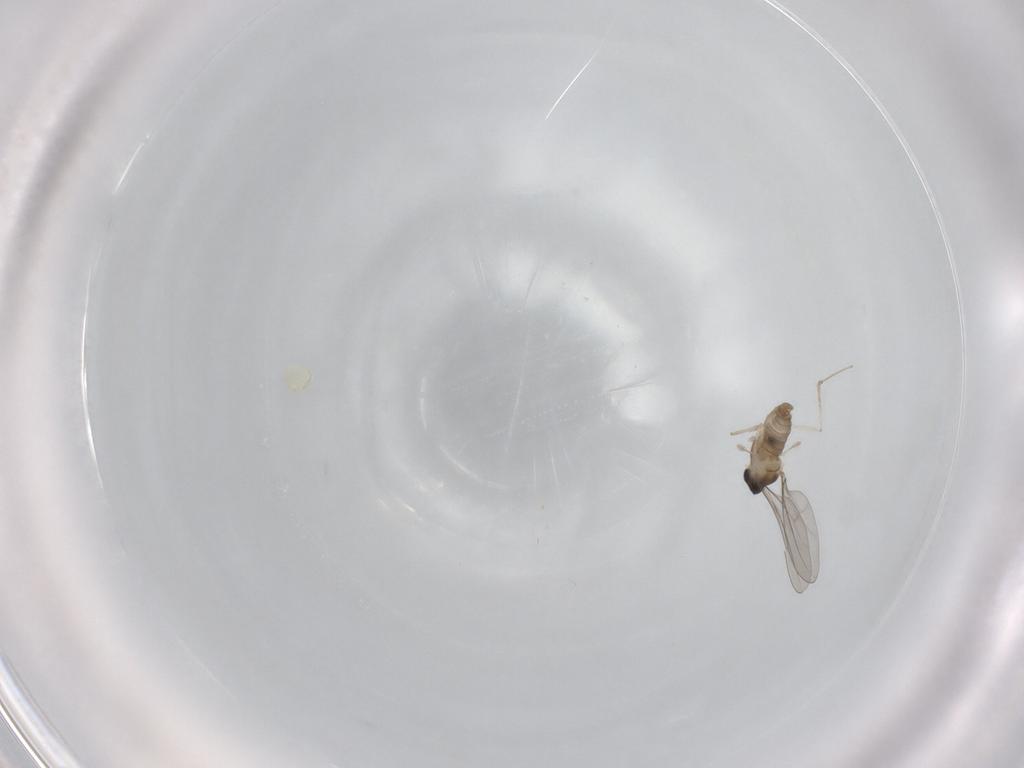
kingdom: Animalia
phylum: Arthropoda
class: Insecta
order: Diptera
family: Cecidomyiidae
